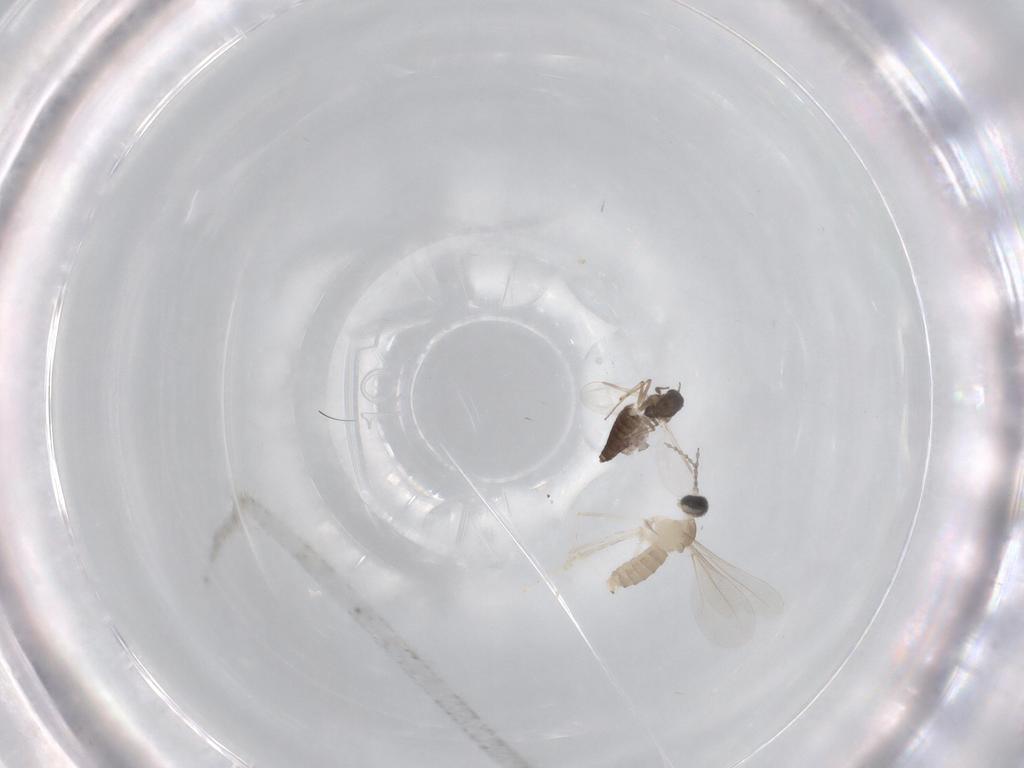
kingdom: Animalia
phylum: Arthropoda
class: Insecta
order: Diptera
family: Chironomidae
